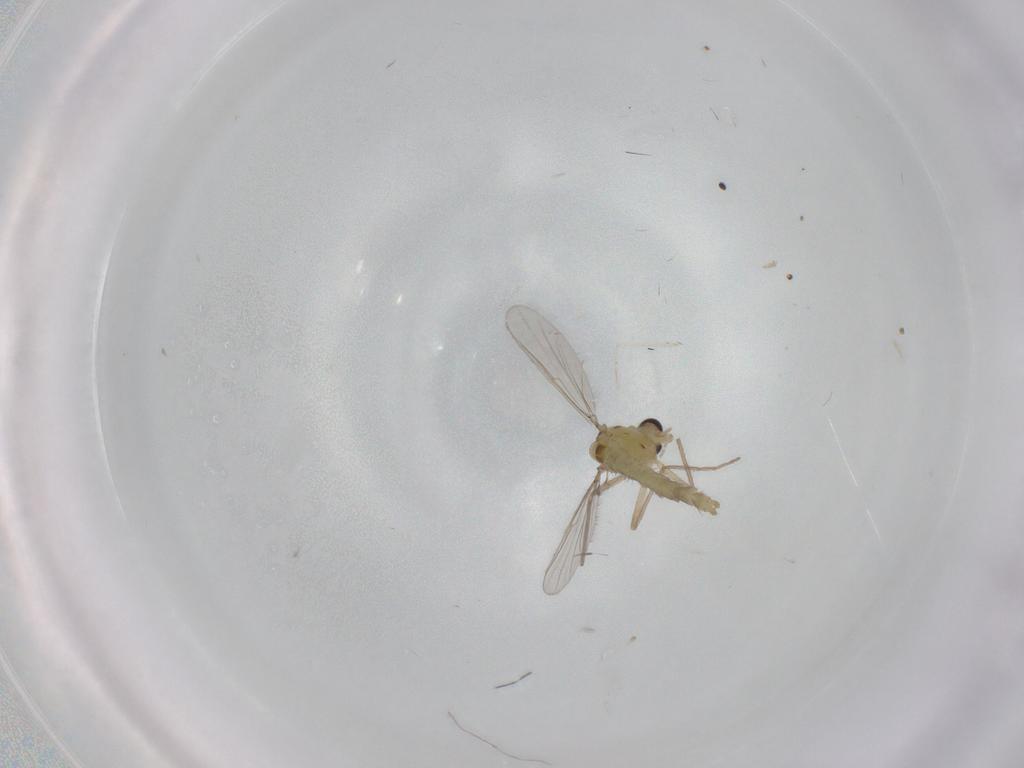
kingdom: Animalia
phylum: Arthropoda
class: Insecta
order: Diptera
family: Chironomidae
